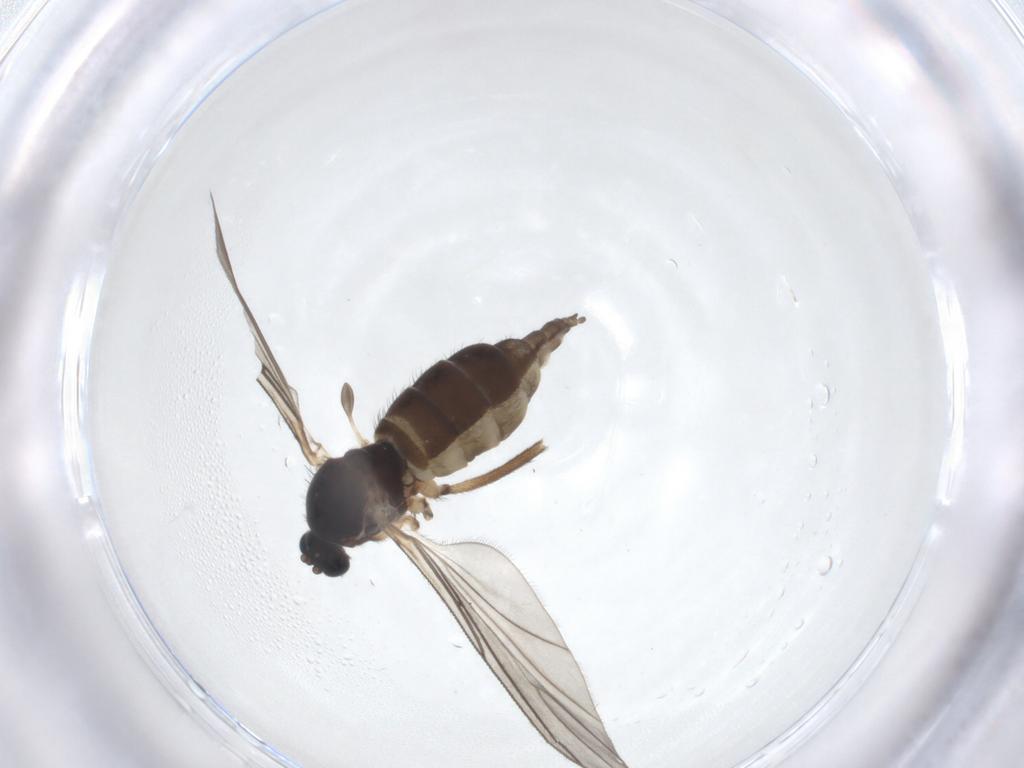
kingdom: Animalia
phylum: Arthropoda
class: Insecta
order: Diptera
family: Sciaridae
